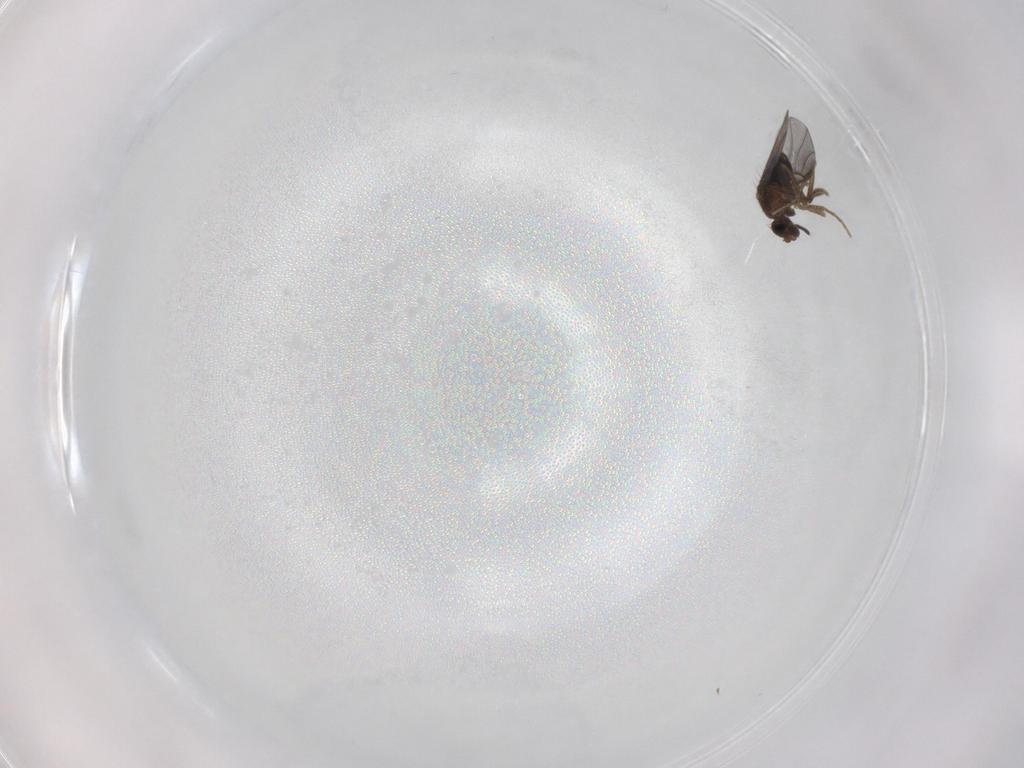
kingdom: Animalia
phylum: Arthropoda
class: Insecta
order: Diptera
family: Phoridae
